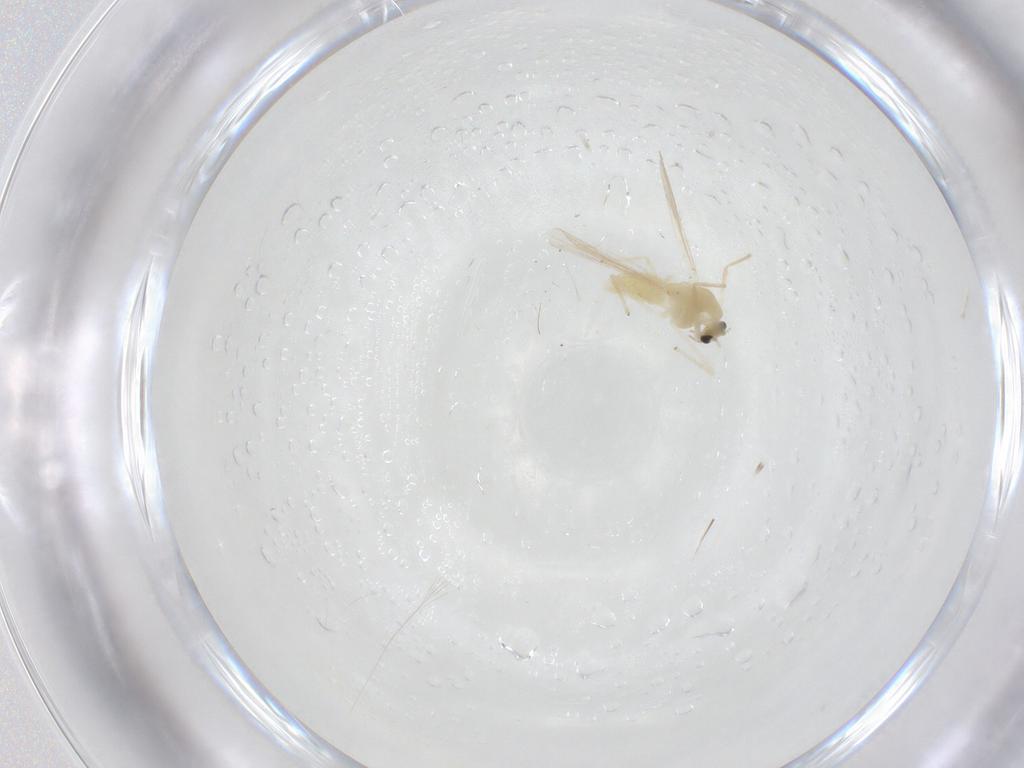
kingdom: Animalia
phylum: Arthropoda
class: Insecta
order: Diptera
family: Chironomidae
